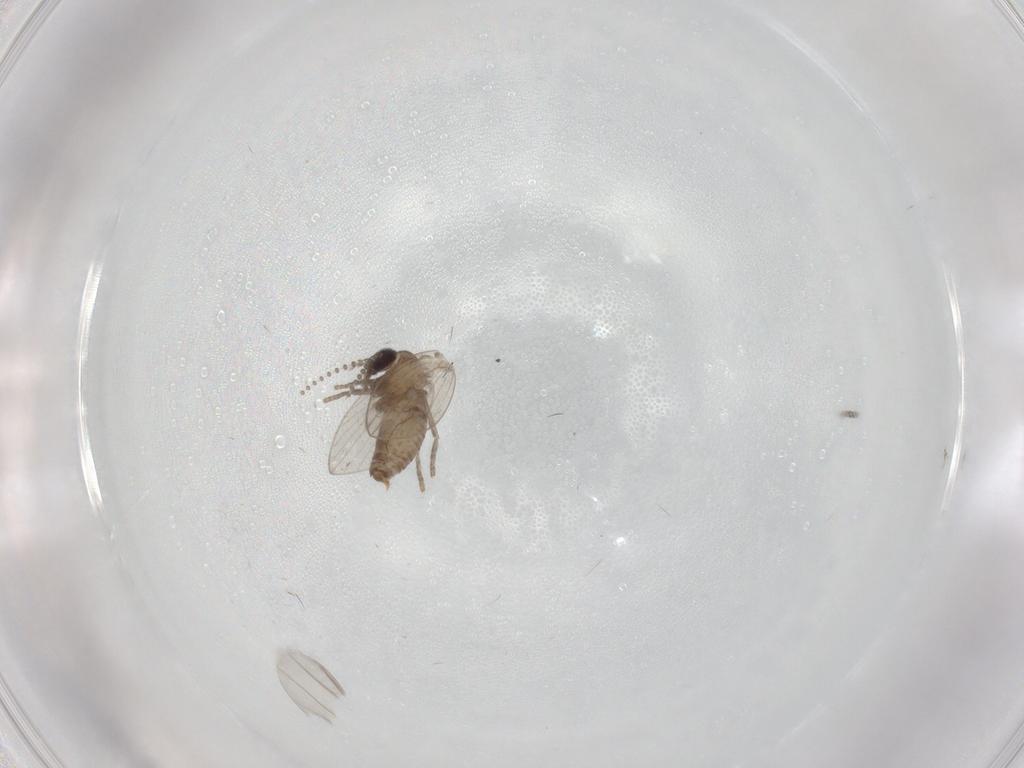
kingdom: Animalia
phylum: Arthropoda
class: Insecta
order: Diptera
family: Psychodidae
